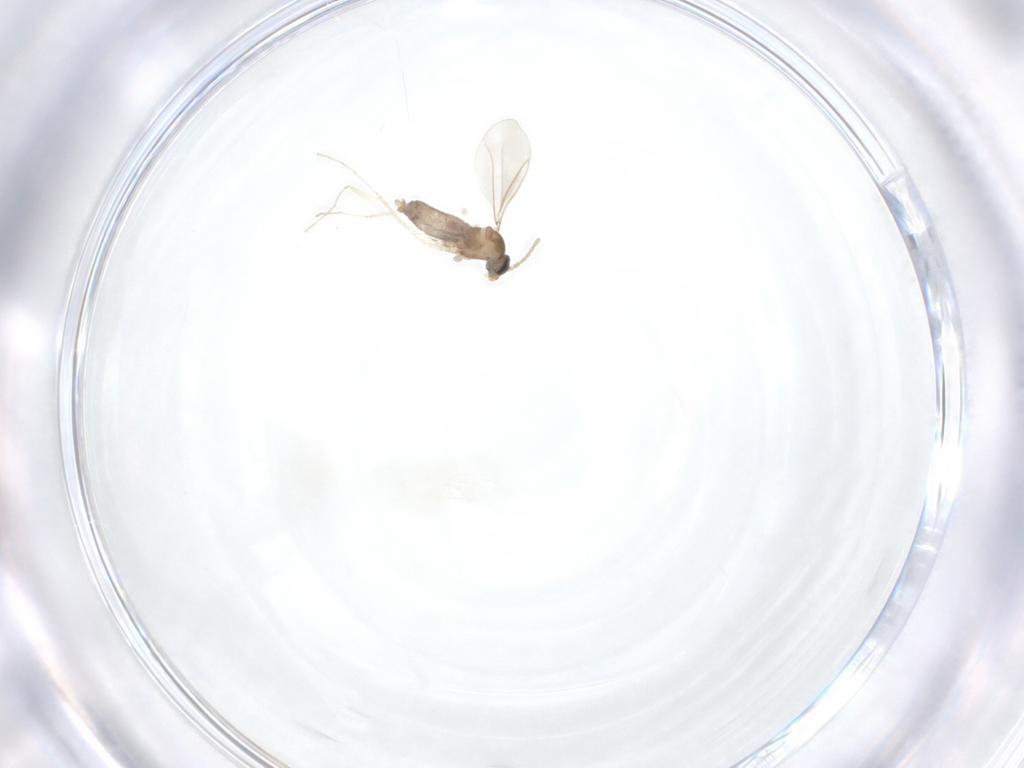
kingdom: Animalia
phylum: Arthropoda
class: Insecta
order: Diptera
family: Cecidomyiidae
